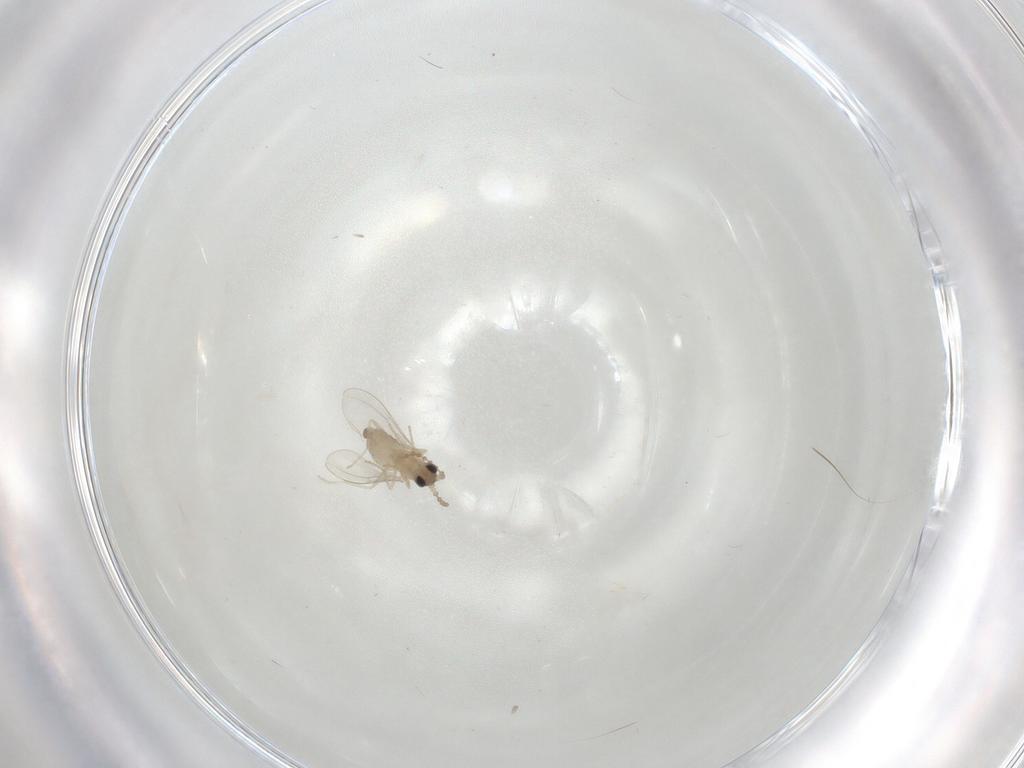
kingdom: Animalia
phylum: Arthropoda
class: Insecta
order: Diptera
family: Cecidomyiidae
